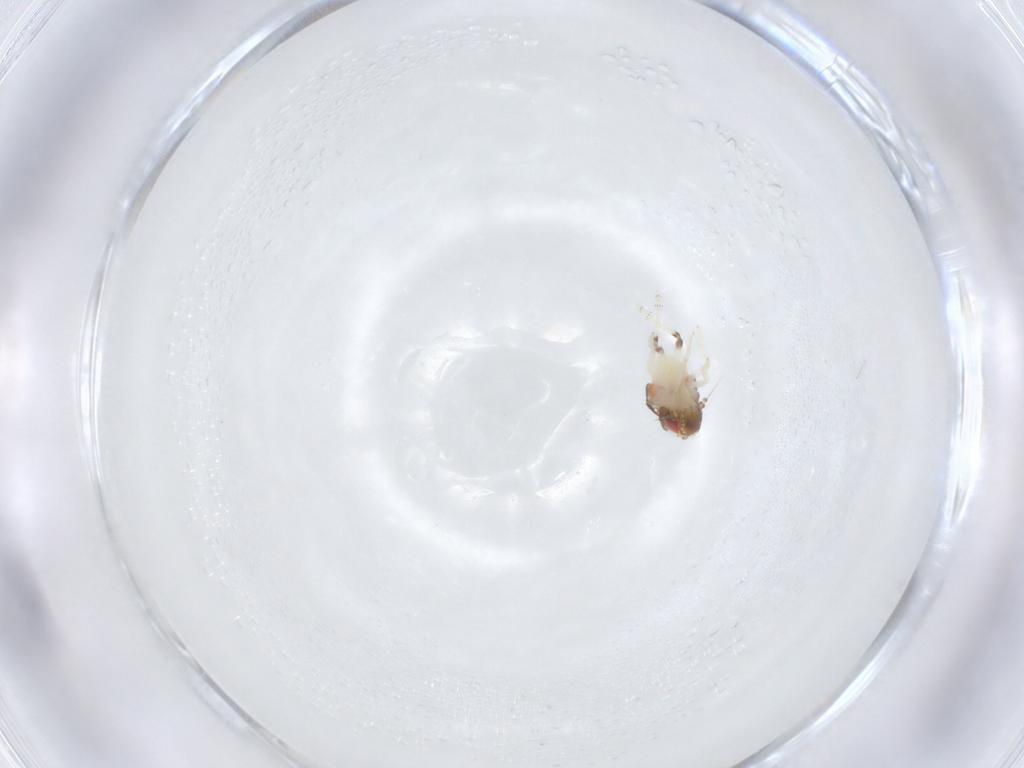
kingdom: Animalia
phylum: Arthropoda
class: Insecta
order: Hemiptera
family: Nogodinidae
